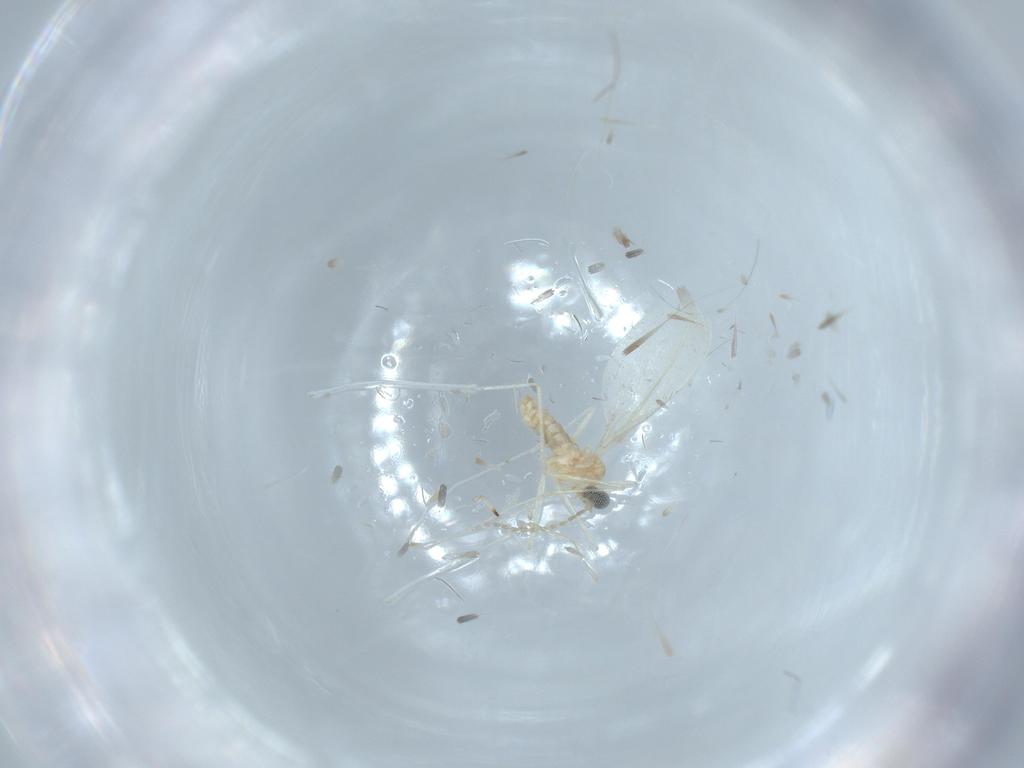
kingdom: Animalia
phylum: Arthropoda
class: Insecta
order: Diptera
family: Cecidomyiidae
